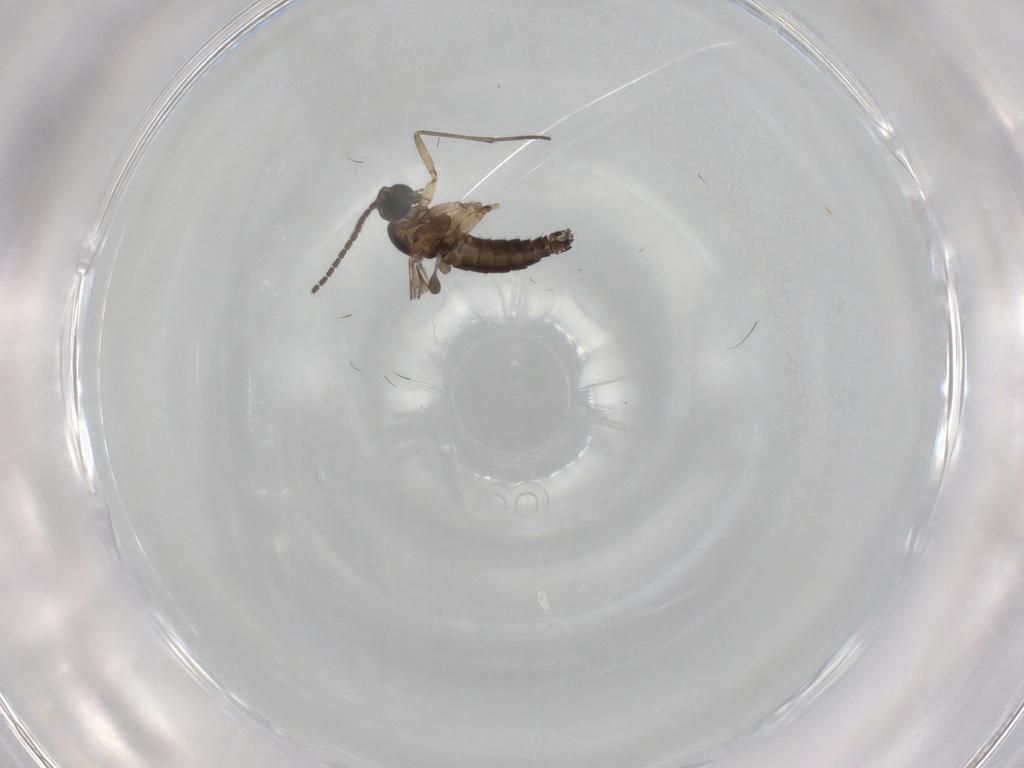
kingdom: Animalia
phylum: Arthropoda
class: Insecta
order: Diptera
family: Sciaridae
